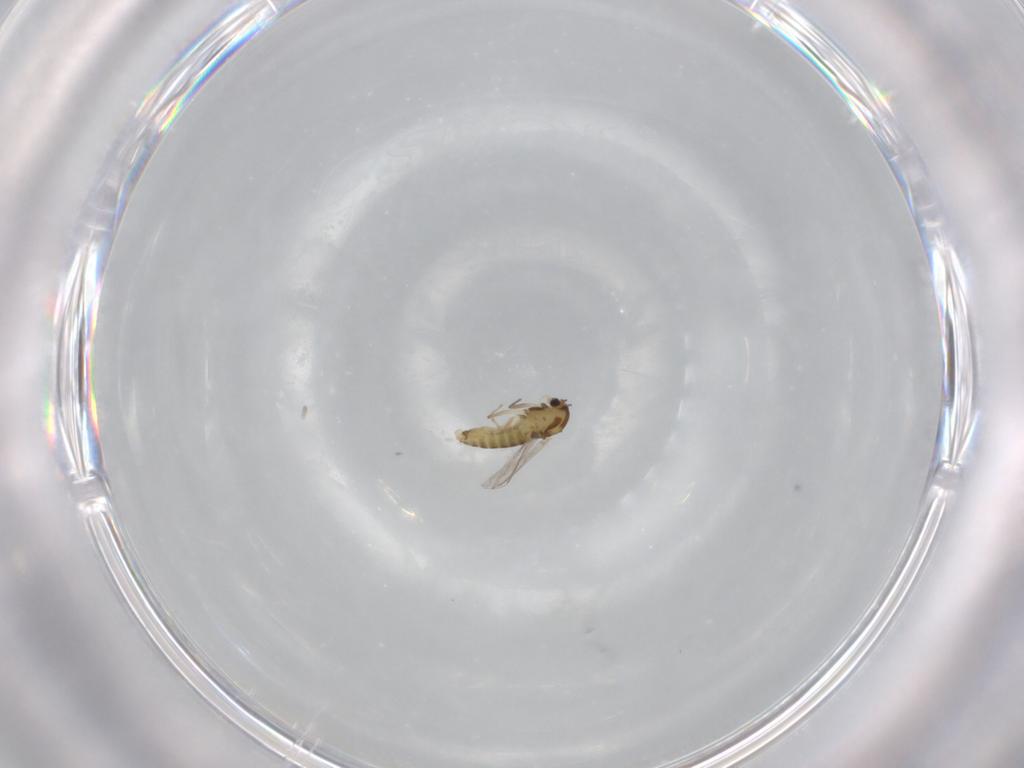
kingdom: Animalia
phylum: Arthropoda
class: Insecta
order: Diptera
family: Chironomidae
